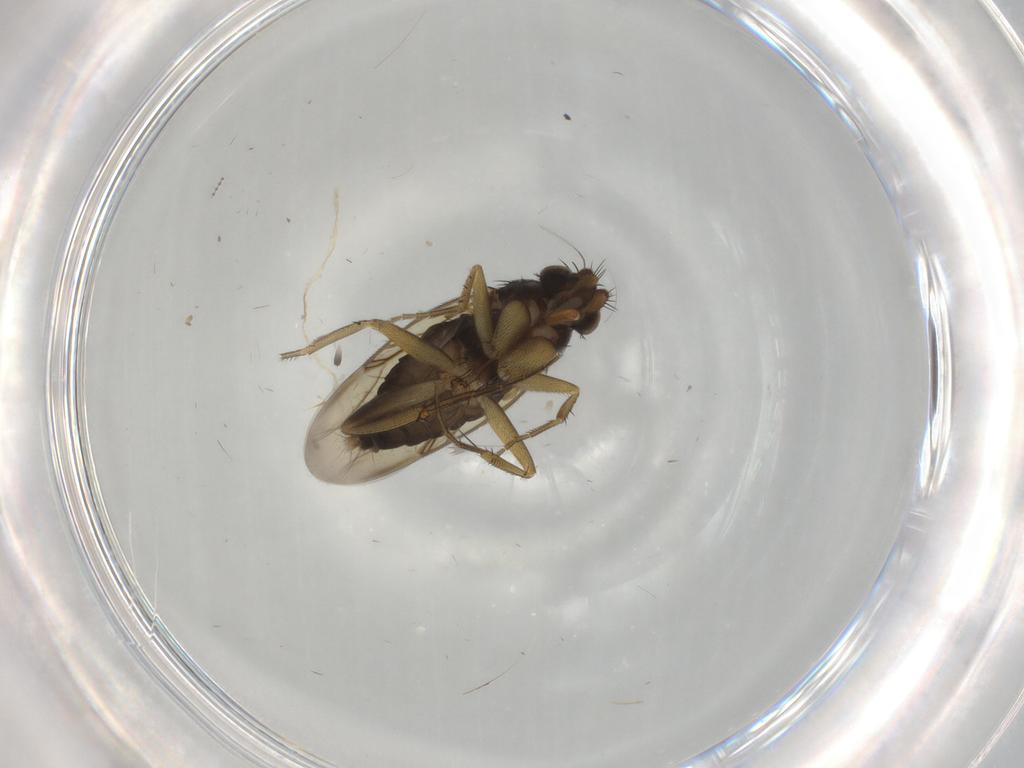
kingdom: Animalia
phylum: Arthropoda
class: Insecta
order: Diptera
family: Phoridae
